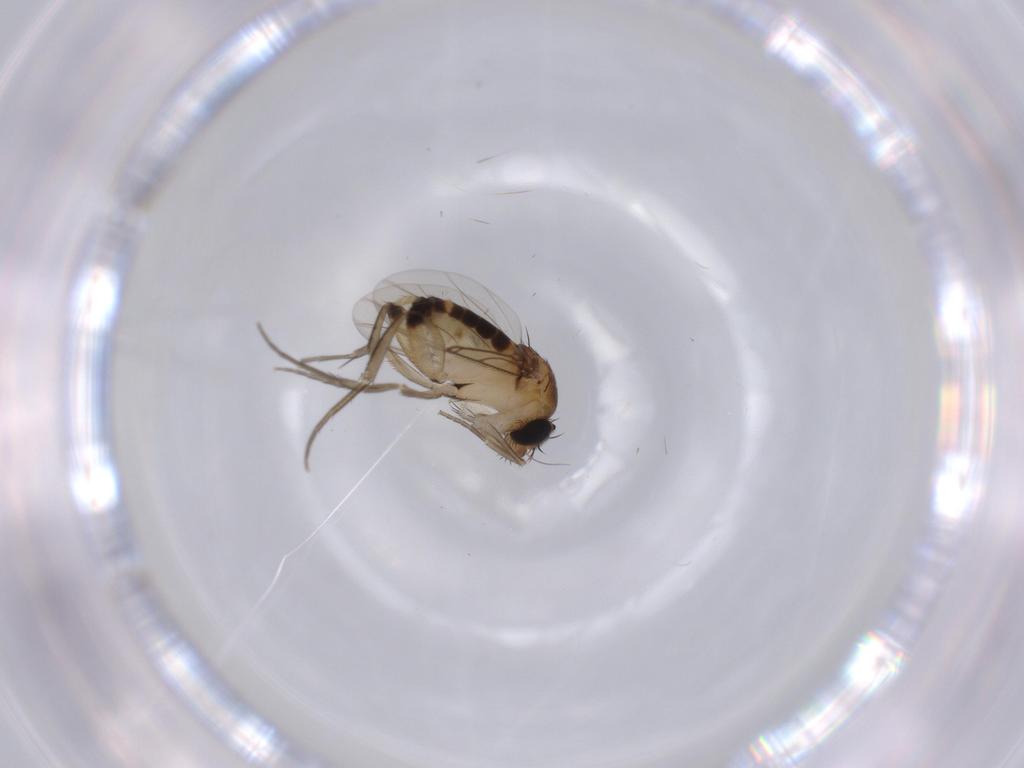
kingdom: Animalia
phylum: Arthropoda
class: Insecta
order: Diptera
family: Phoridae
